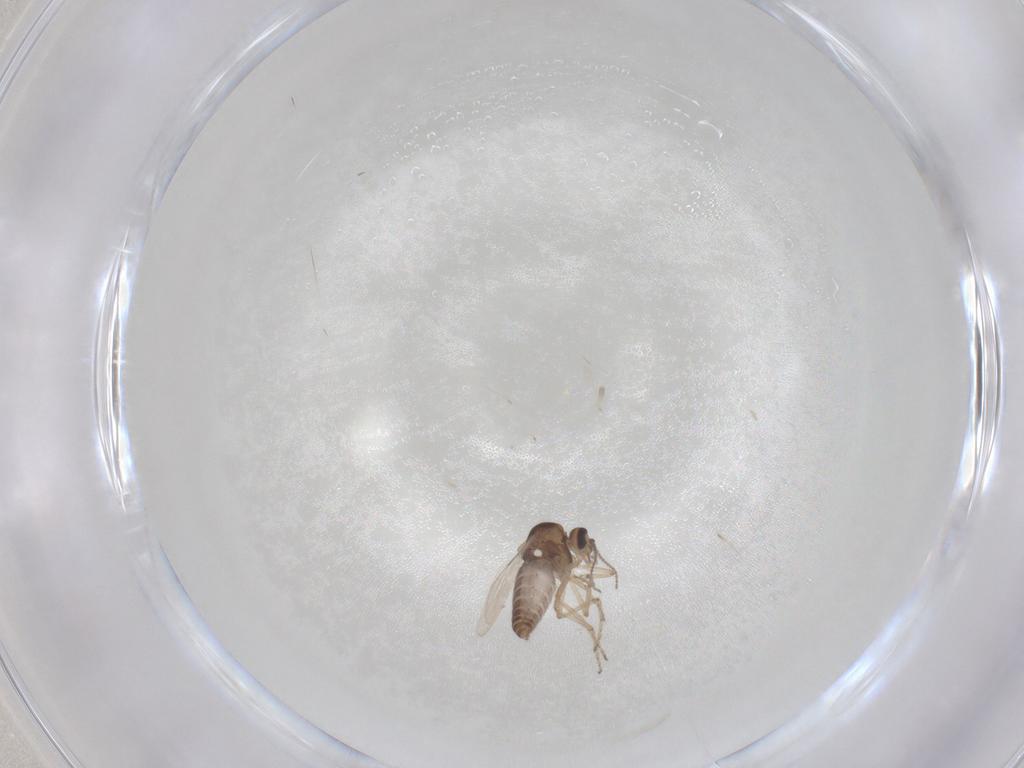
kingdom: Animalia
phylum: Arthropoda
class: Insecta
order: Diptera
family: Ceratopogonidae
